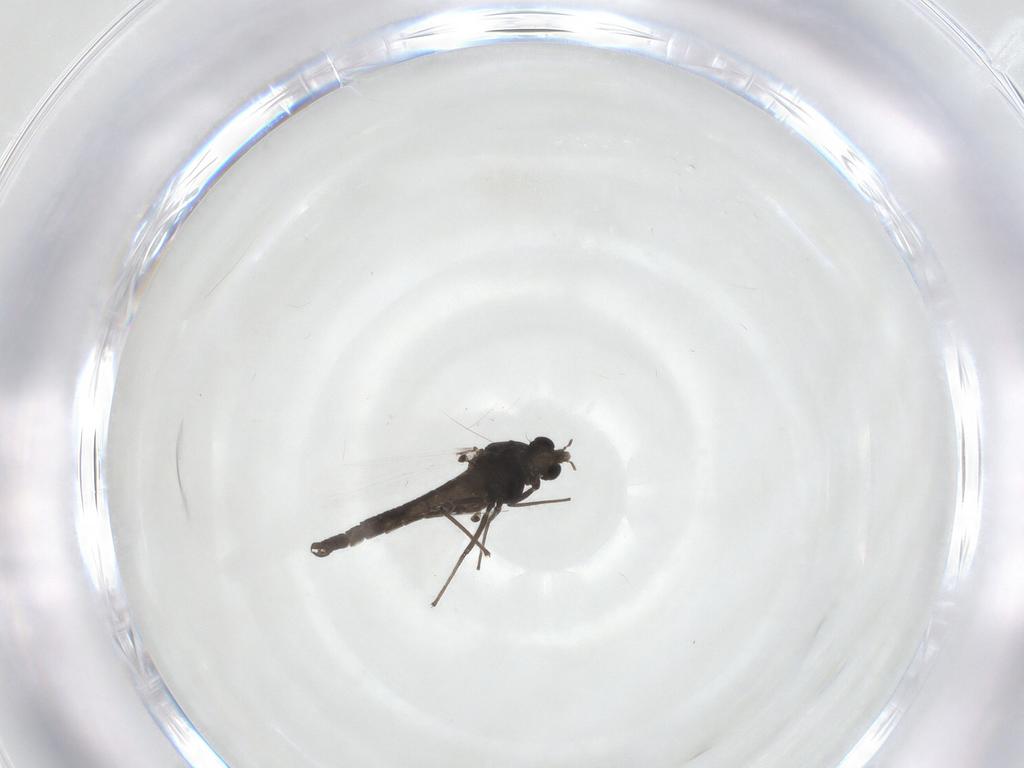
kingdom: Animalia
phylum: Arthropoda
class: Insecta
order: Diptera
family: Chironomidae
